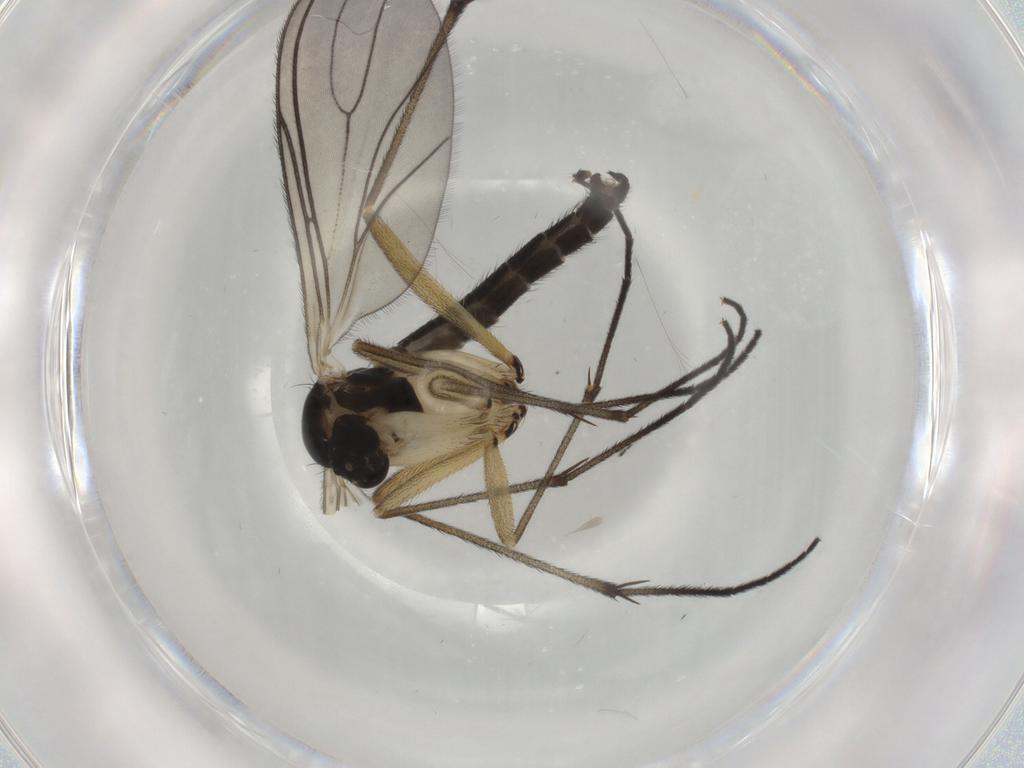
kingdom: Animalia
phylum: Arthropoda
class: Insecta
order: Diptera
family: Sciaridae
